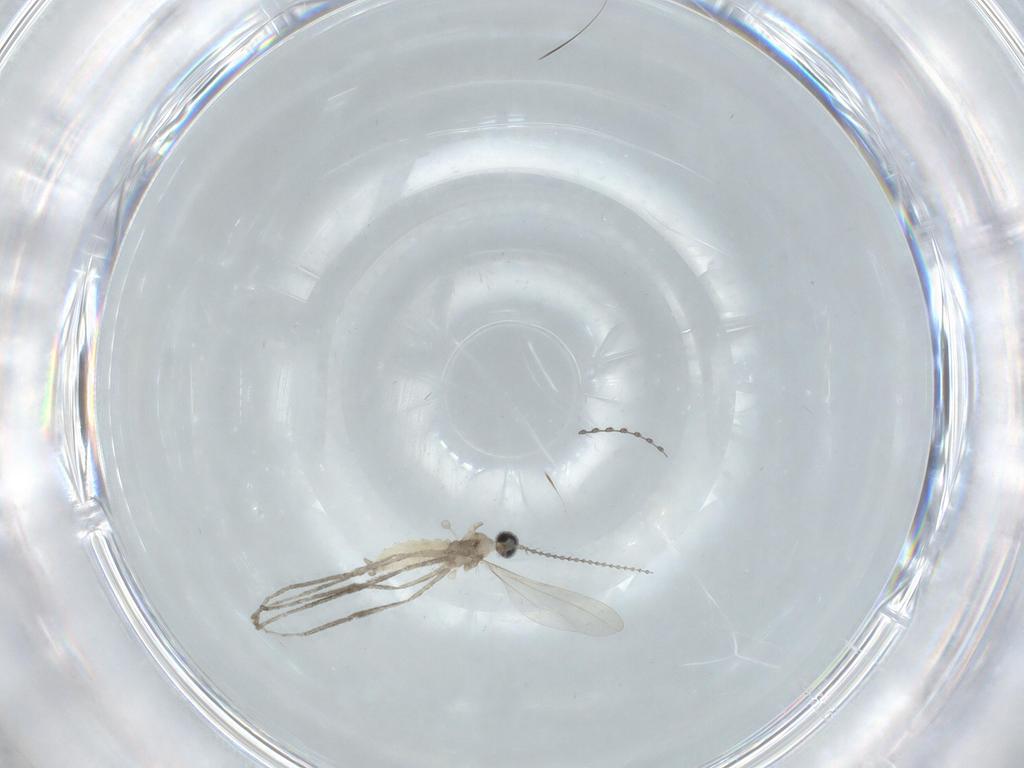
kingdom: Animalia
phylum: Arthropoda
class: Insecta
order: Diptera
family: Cecidomyiidae
